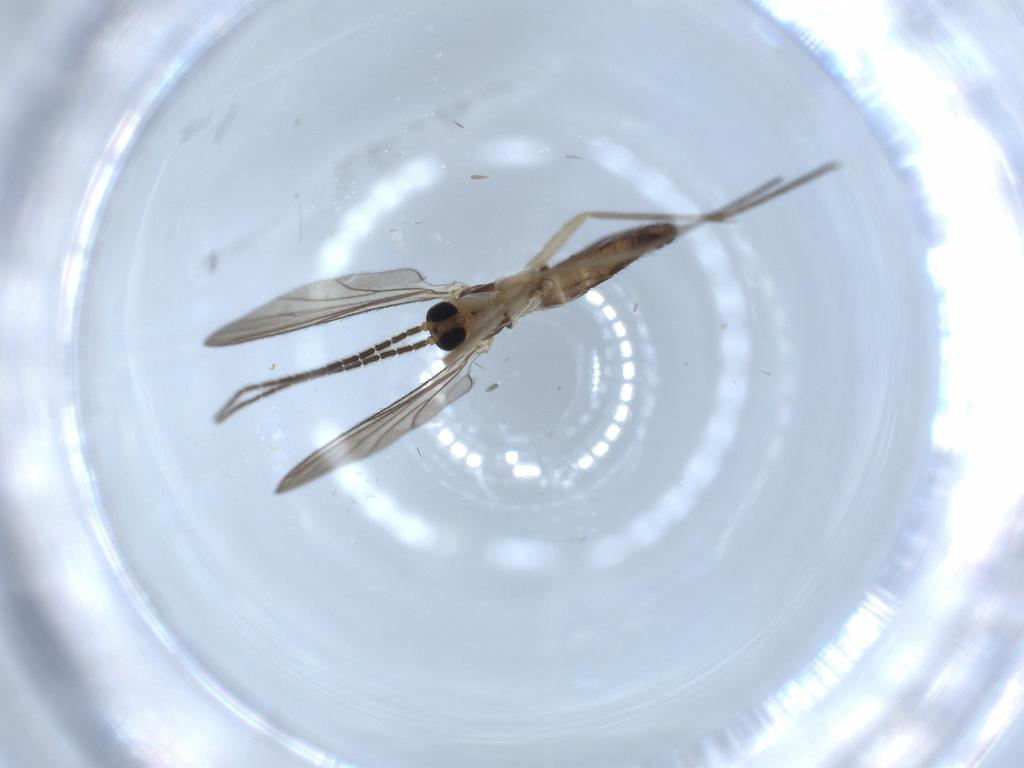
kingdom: Animalia
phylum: Arthropoda
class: Insecta
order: Diptera
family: Sciaridae
